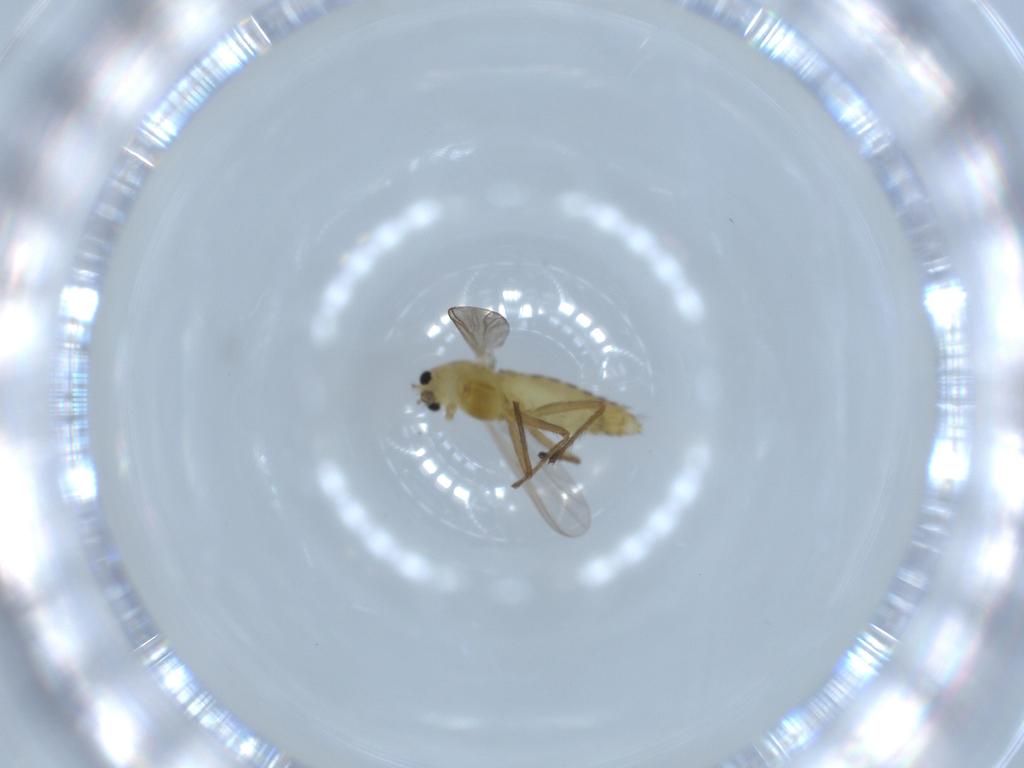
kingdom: Animalia
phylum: Arthropoda
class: Insecta
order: Diptera
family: Chironomidae
